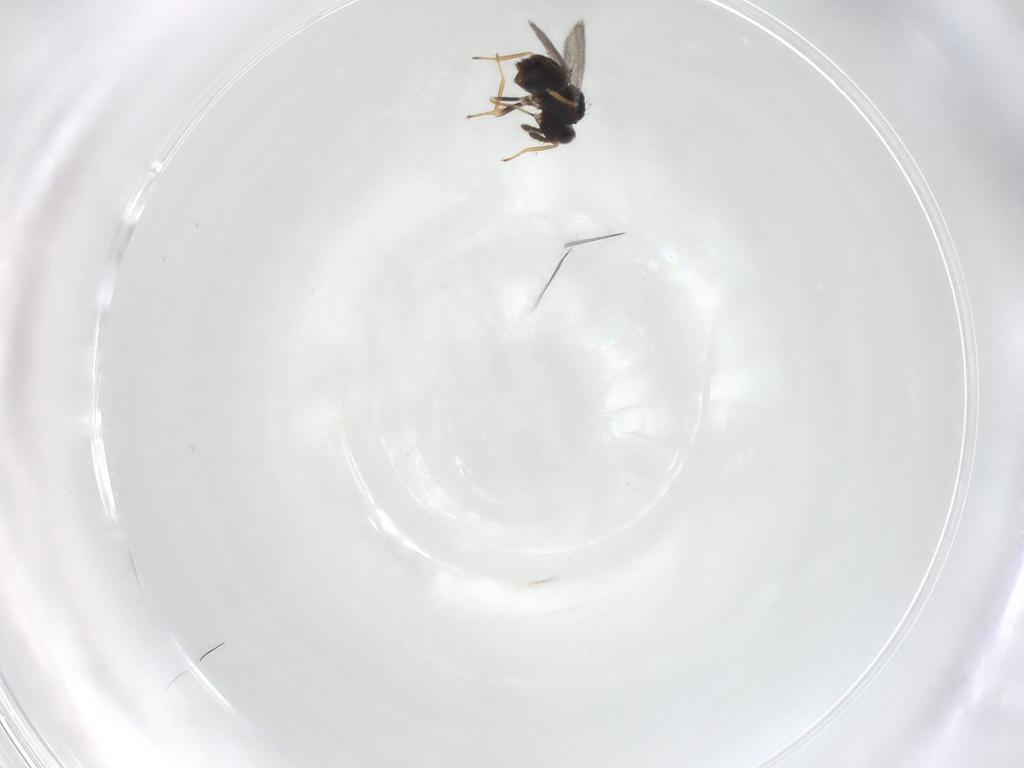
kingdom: Animalia
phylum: Arthropoda
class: Insecta
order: Hymenoptera
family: Eulophidae
